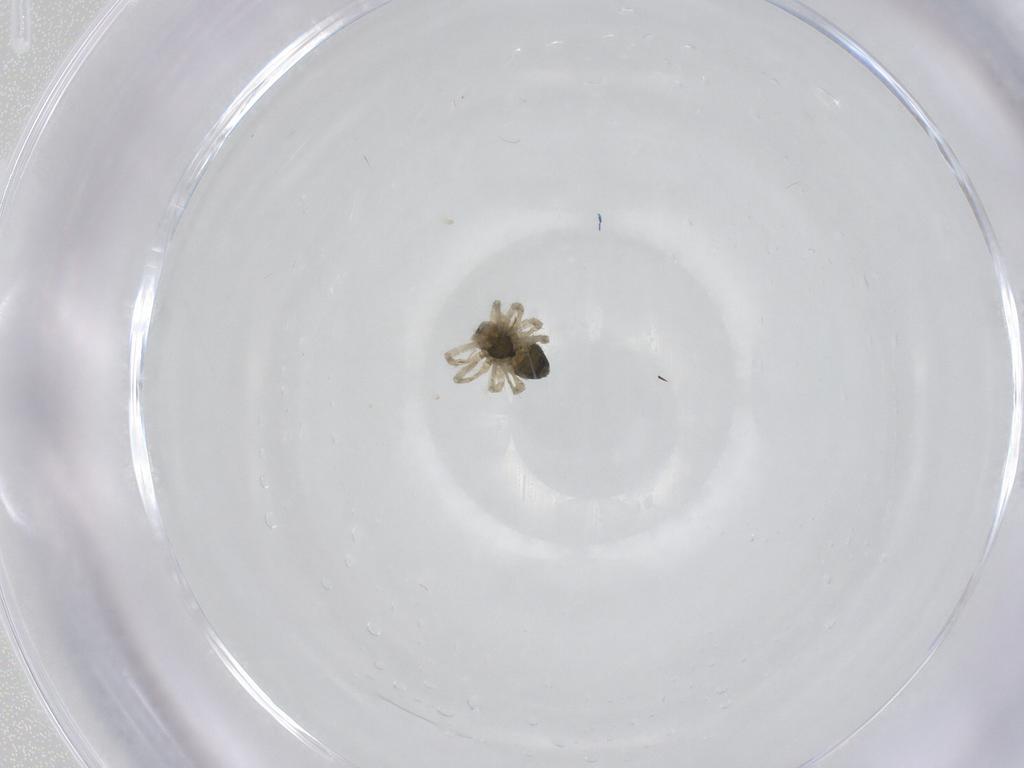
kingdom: Animalia
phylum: Arthropoda
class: Arachnida
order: Araneae
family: Linyphiidae
